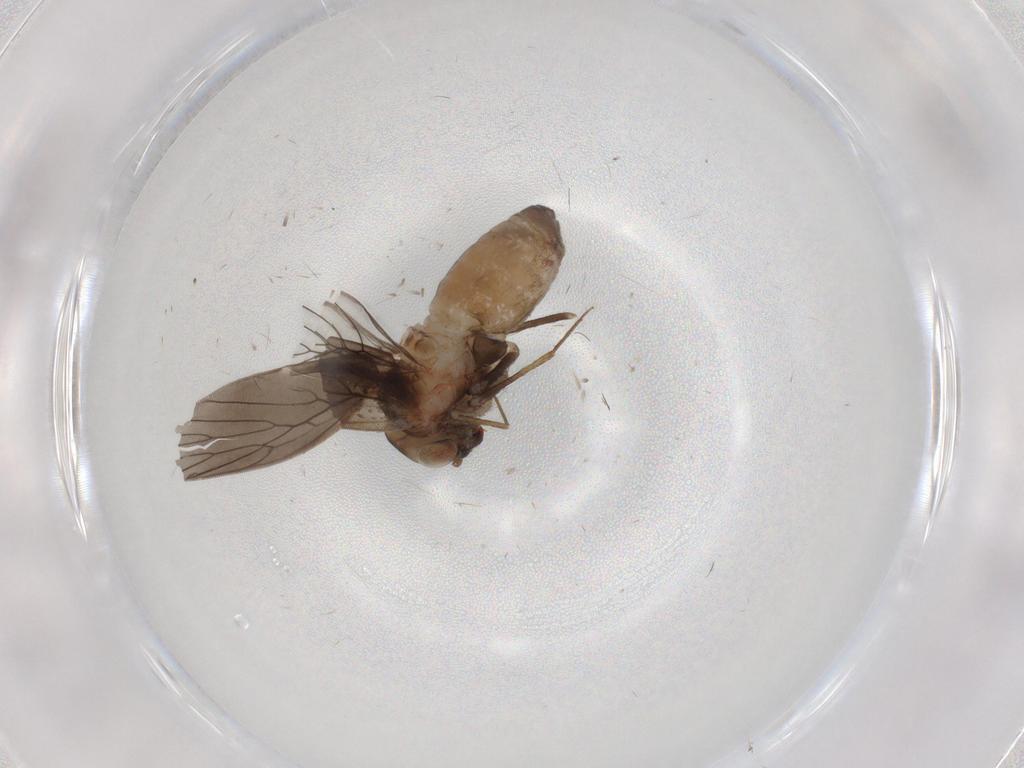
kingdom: Animalia
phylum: Arthropoda
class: Insecta
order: Psocodea
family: Lepidopsocidae
